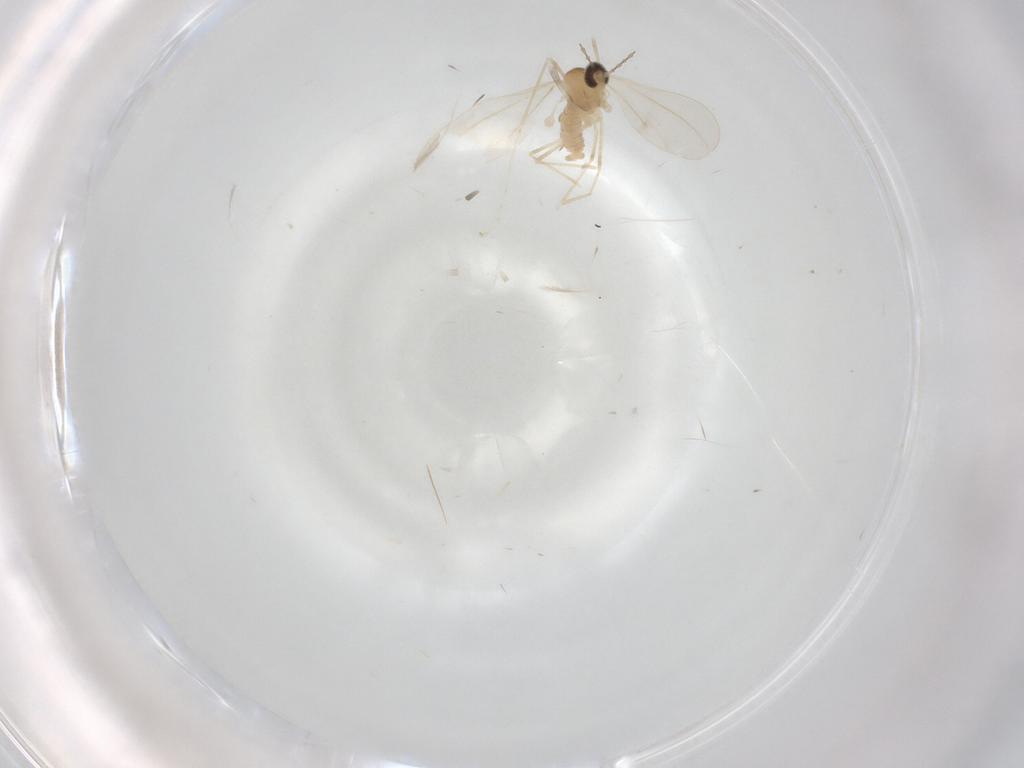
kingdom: Animalia
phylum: Arthropoda
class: Insecta
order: Diptera
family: Cecidomyiidae
